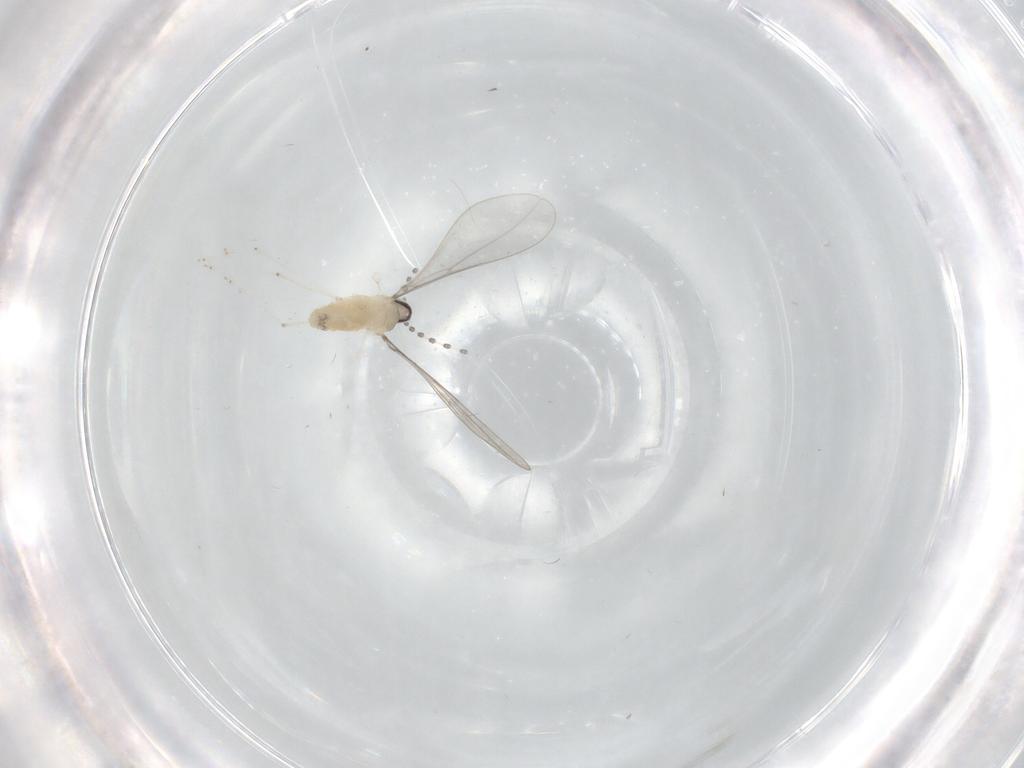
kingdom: Animalia
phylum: Arthropoda
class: Insecta
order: Diptera
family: Cecidomyiidae
